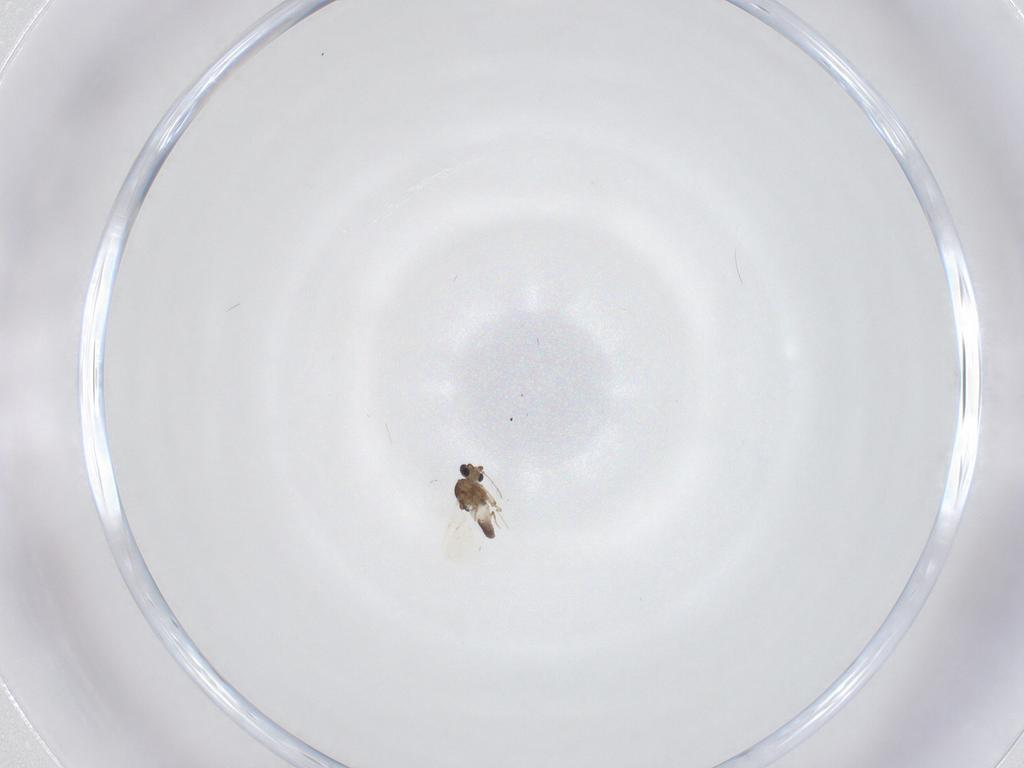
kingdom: Animalia
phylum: Arthropoda
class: Insecta
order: Diptera
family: Ceratopogonidae
